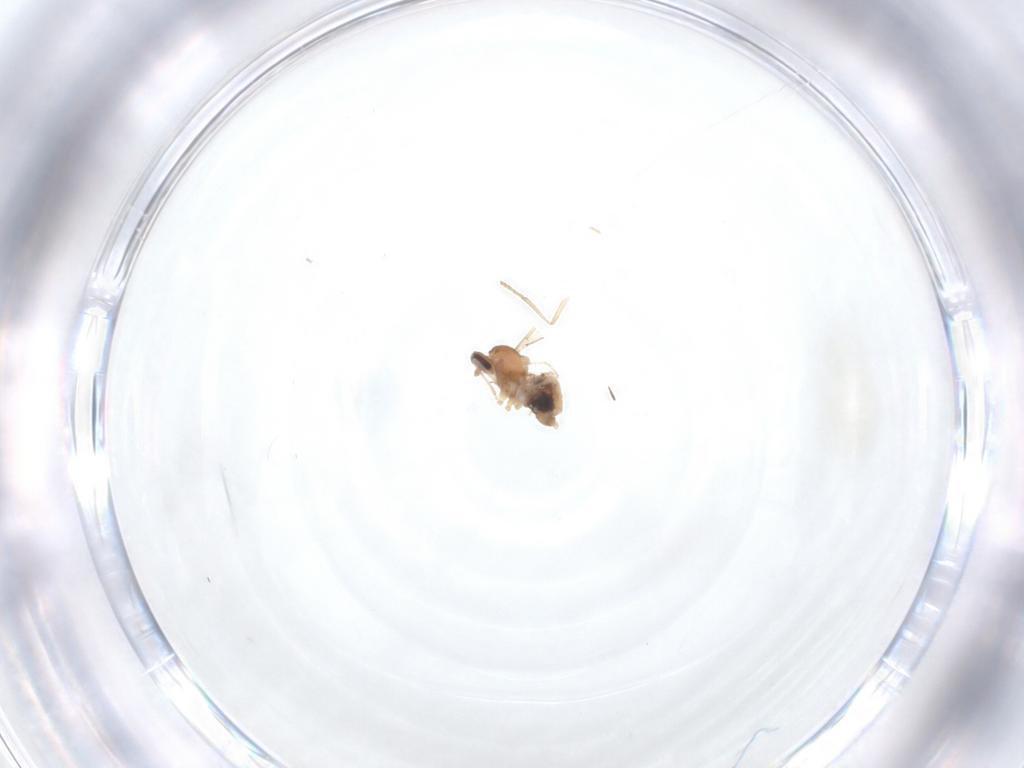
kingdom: Animalia
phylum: Arthropoda
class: Insecta
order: Diptera
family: Cecidomyiidae
